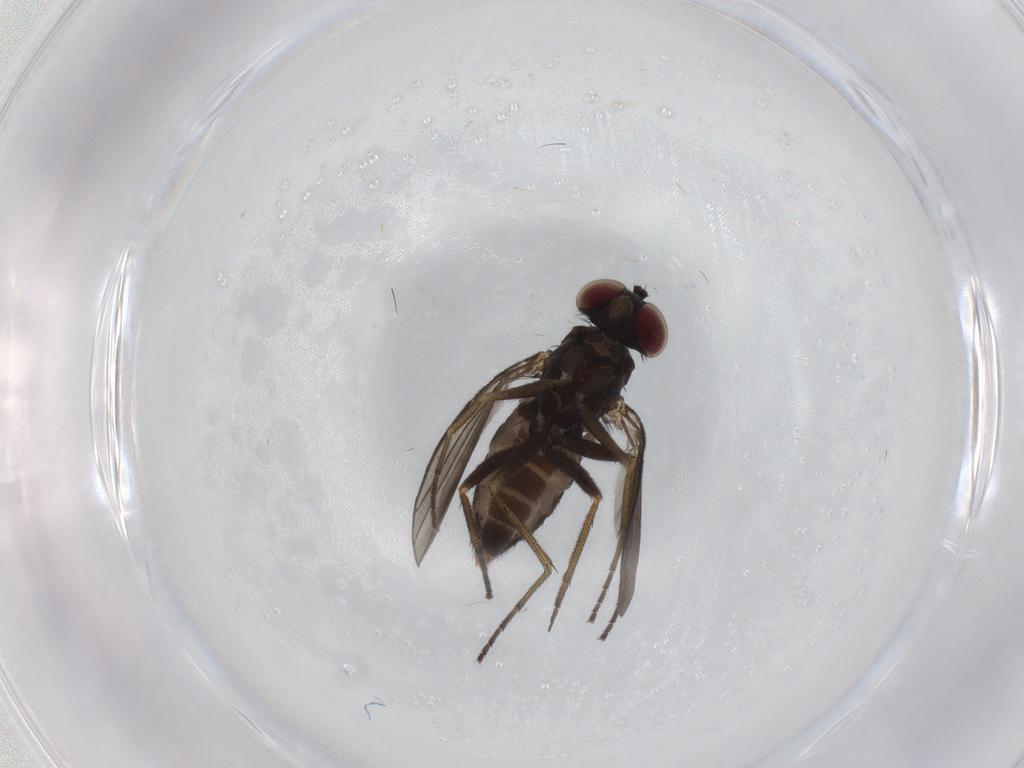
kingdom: Animalia
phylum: Arthropoda
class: Insecta
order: Diptera
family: Dolichopodidae
